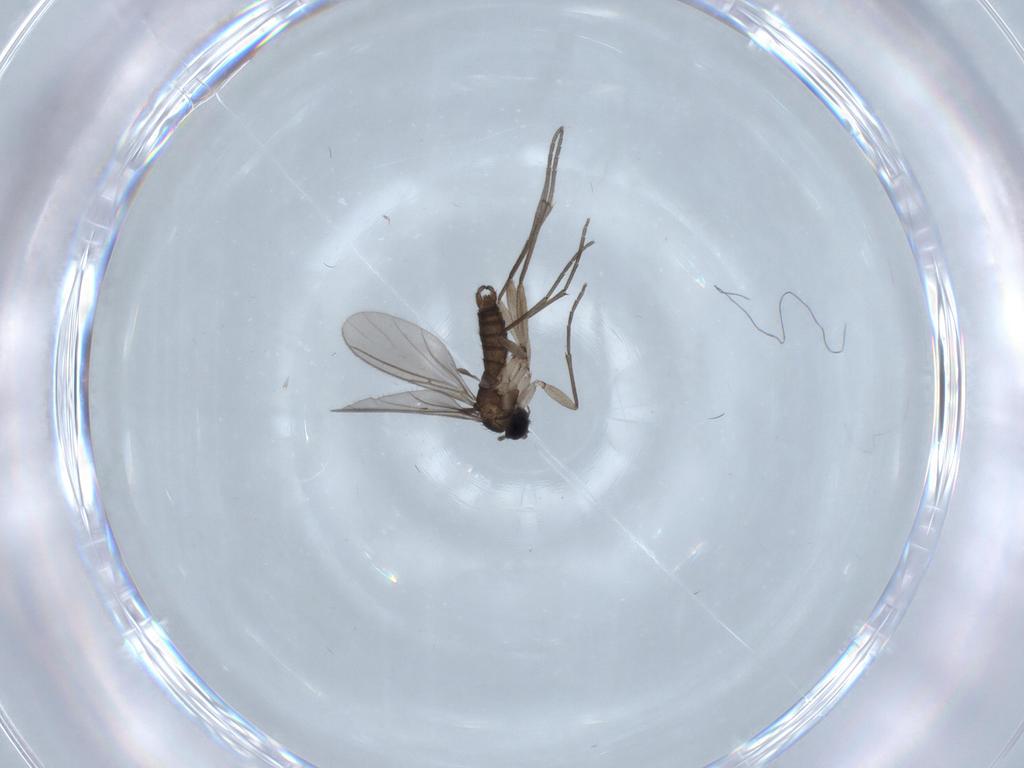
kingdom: Animalia
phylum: Arthropoda
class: Insecta
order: Diptera
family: Sciaridae
